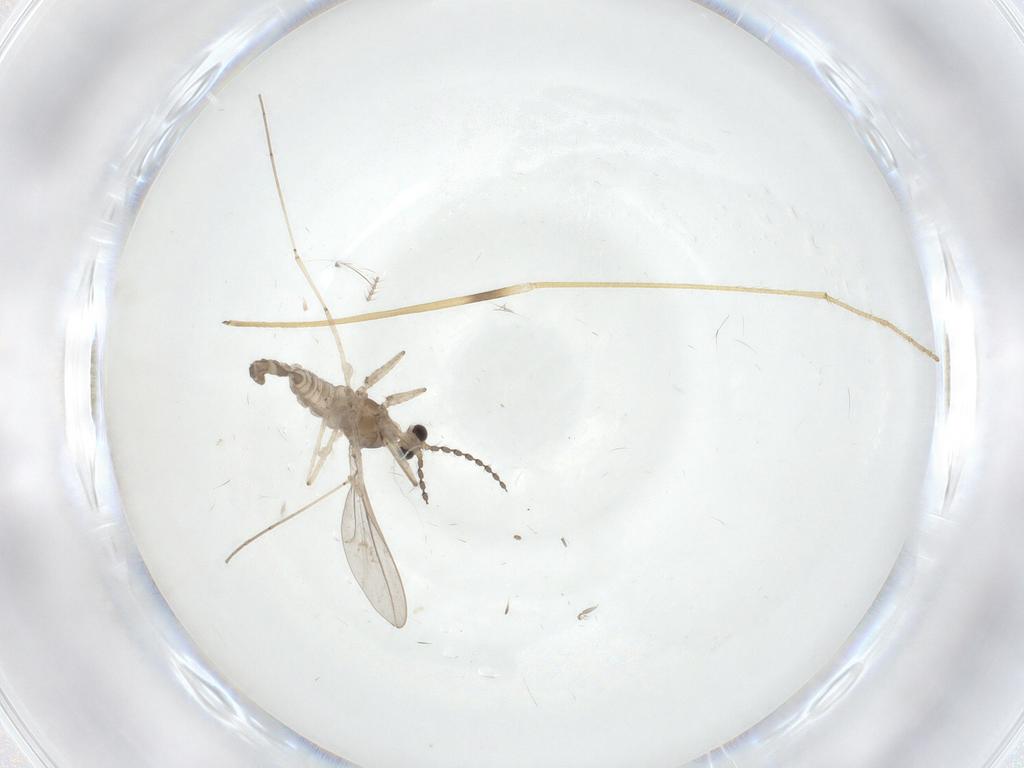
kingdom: Animalia
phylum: Arthropoda
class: Insecta
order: Diptera
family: Cecidomyiidae
